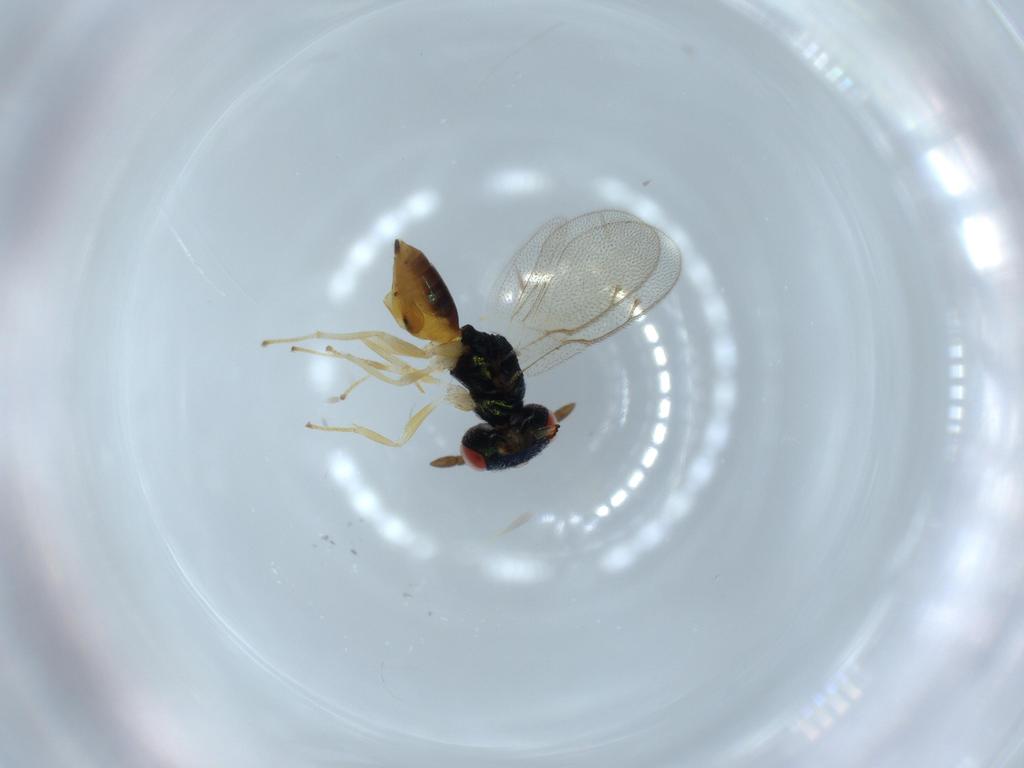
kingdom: Animalia
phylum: Arthropoda
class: Insecta
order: Hymenoptera
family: Pteromalidae
